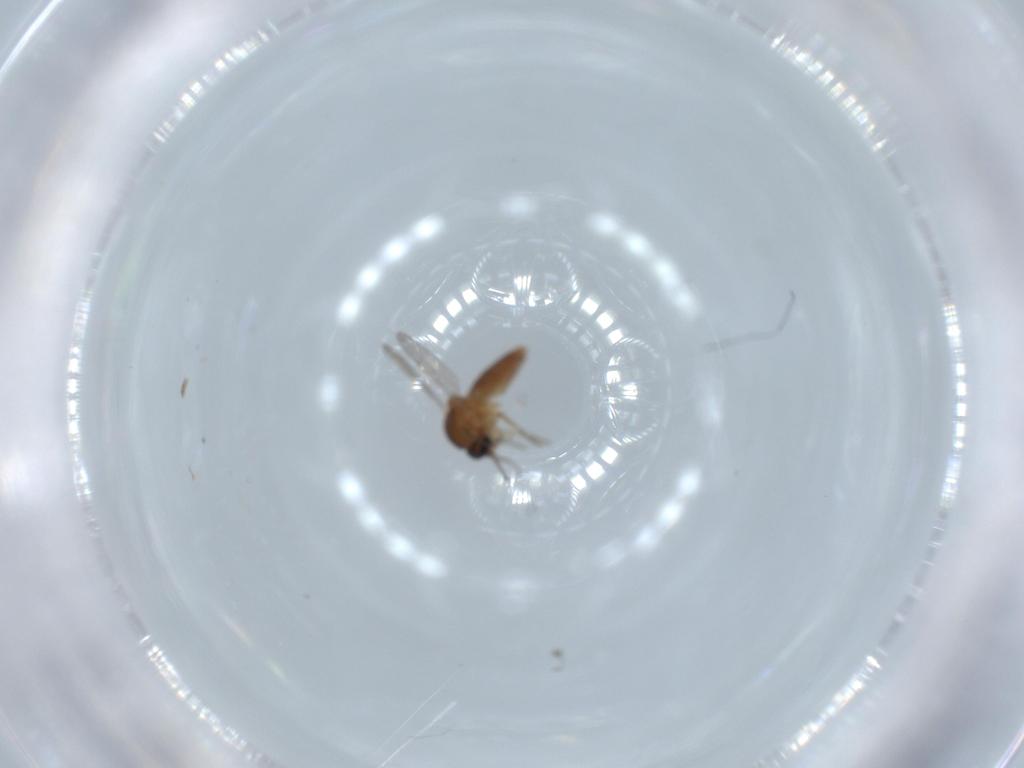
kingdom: Animalia
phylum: Arthropoda
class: Insecta
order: Diptera
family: Ceratopogonidae
